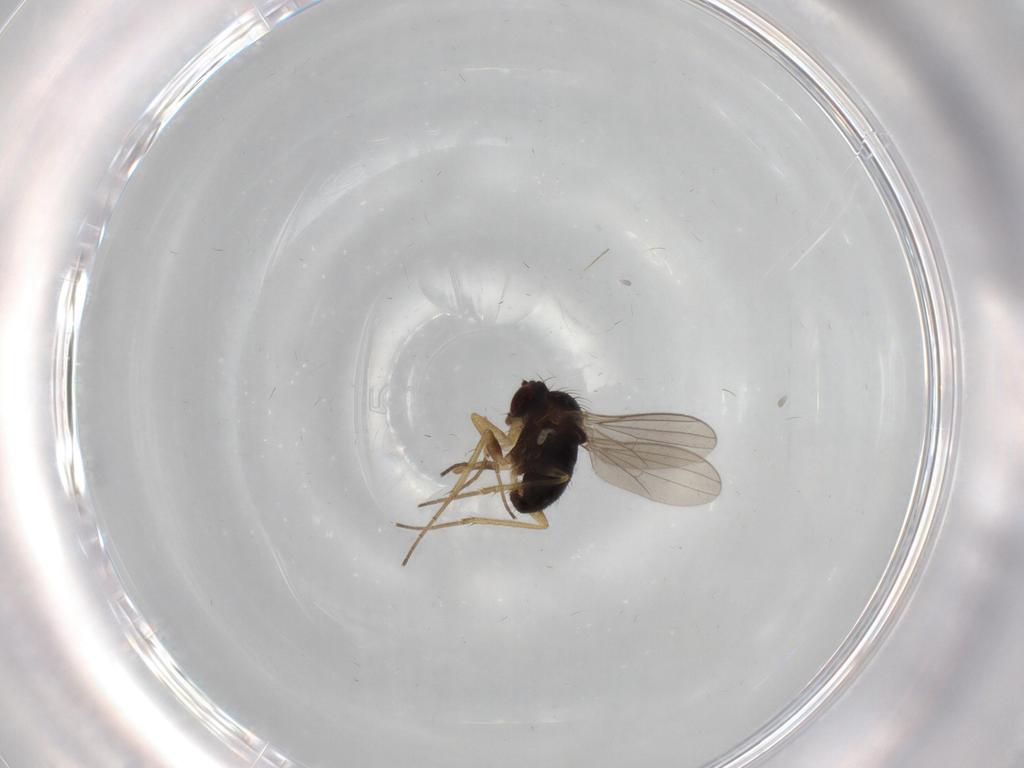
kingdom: Animalia
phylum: Arthropoda
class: Insecta
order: Diptera
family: Dolichopodidae
